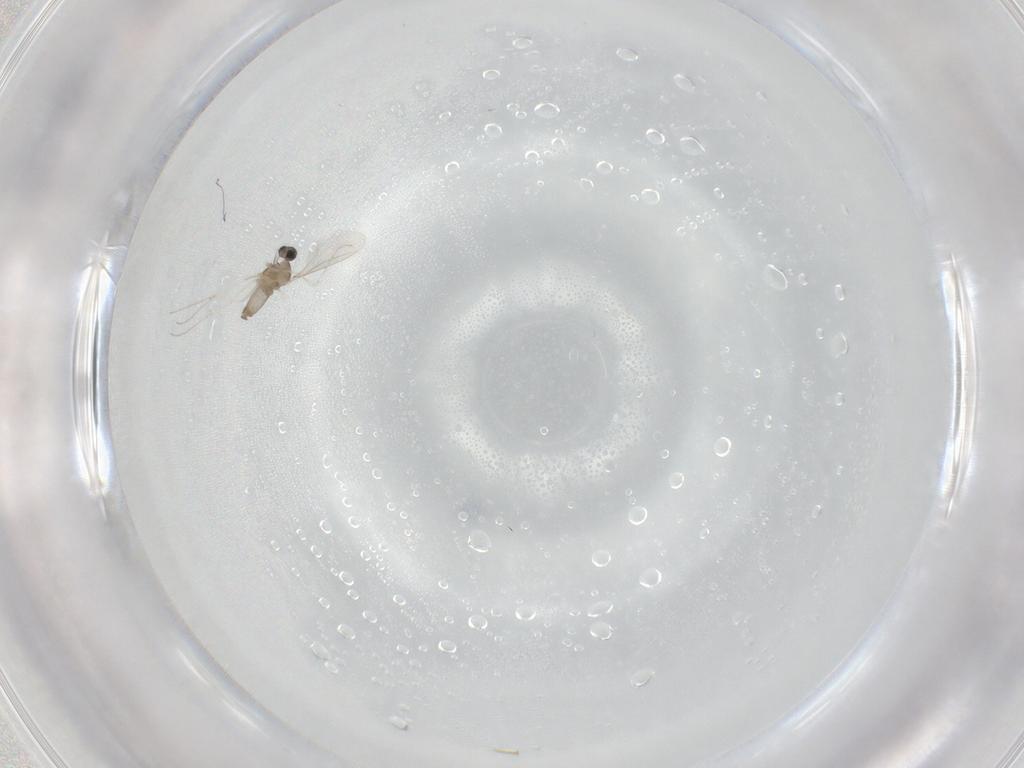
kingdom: Animalia
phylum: Arthropoda
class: Insecta
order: Diptera
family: Cecidomyiidae
